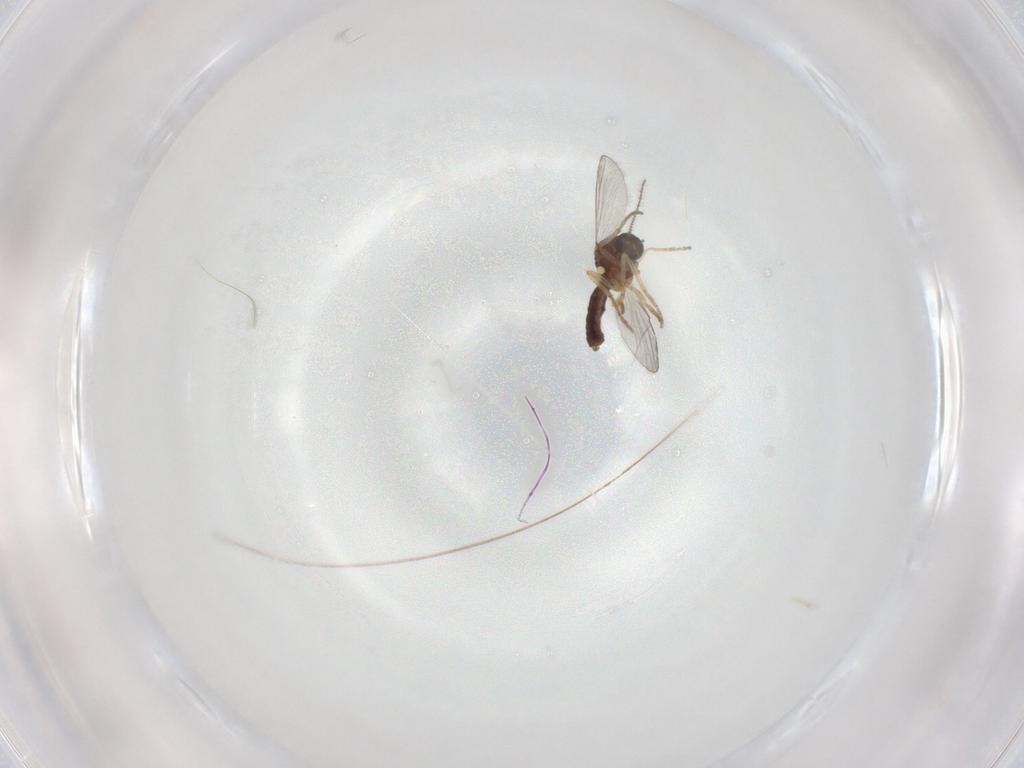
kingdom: Animalia
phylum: Arthropoda
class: Insecta
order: Diptera
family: Ceratopogonidae
